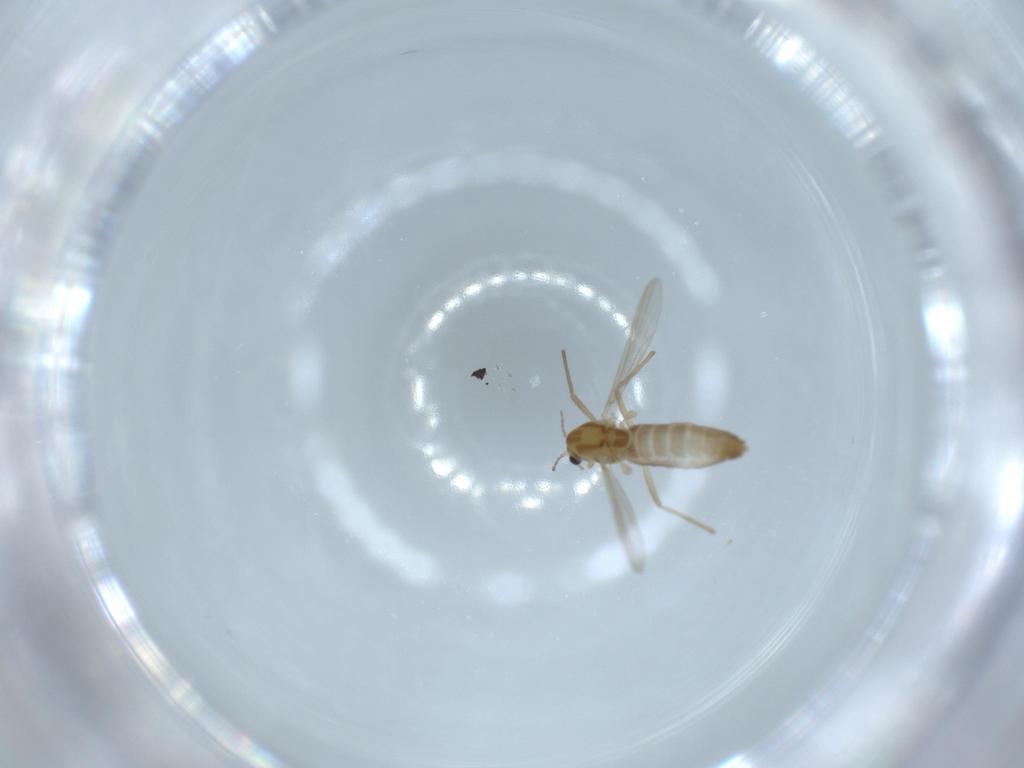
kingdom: Animalia
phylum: Arthropoda
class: Insecta
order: Diptera
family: Chironomidae
